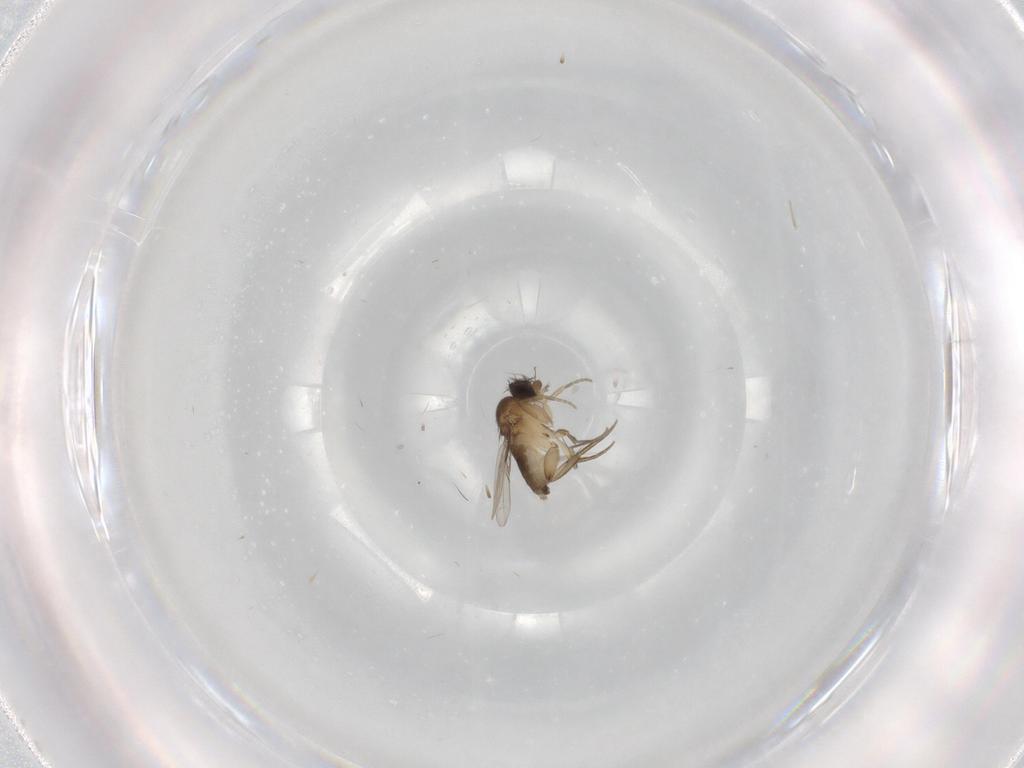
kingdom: Animalia
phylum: Arthropoda
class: Insecta
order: Diptera
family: Phoridae
